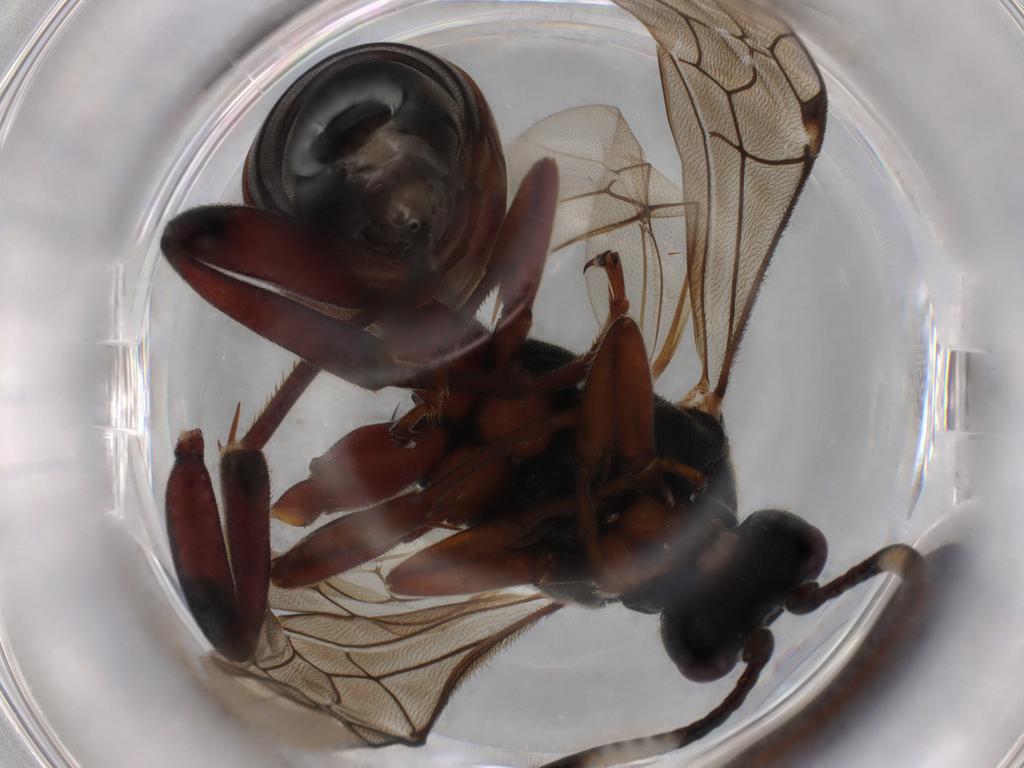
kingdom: Animalia
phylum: Arthropoda
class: Insecta
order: Hymenoptera
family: Ichneumonidae
